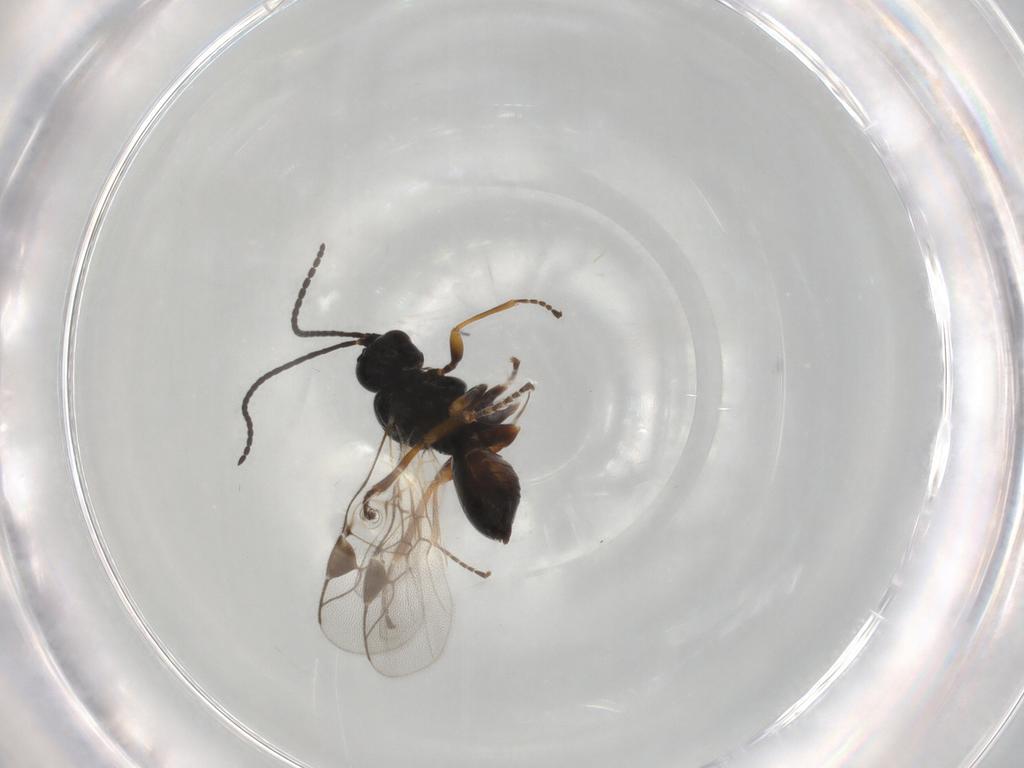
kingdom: Animalia
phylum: Arthropoda
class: Insecta
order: Hymenoptera
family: Braconidae
